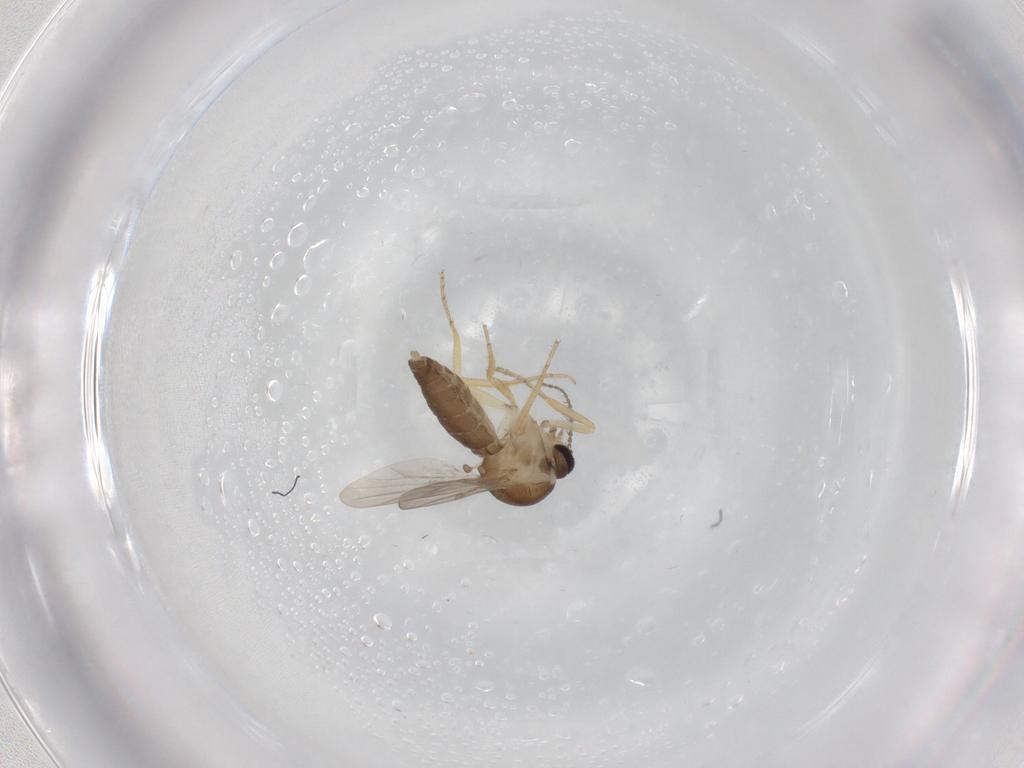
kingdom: Animalia
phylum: Arthropoda
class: Insecta
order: Diptera
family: Ceratopogonidae
